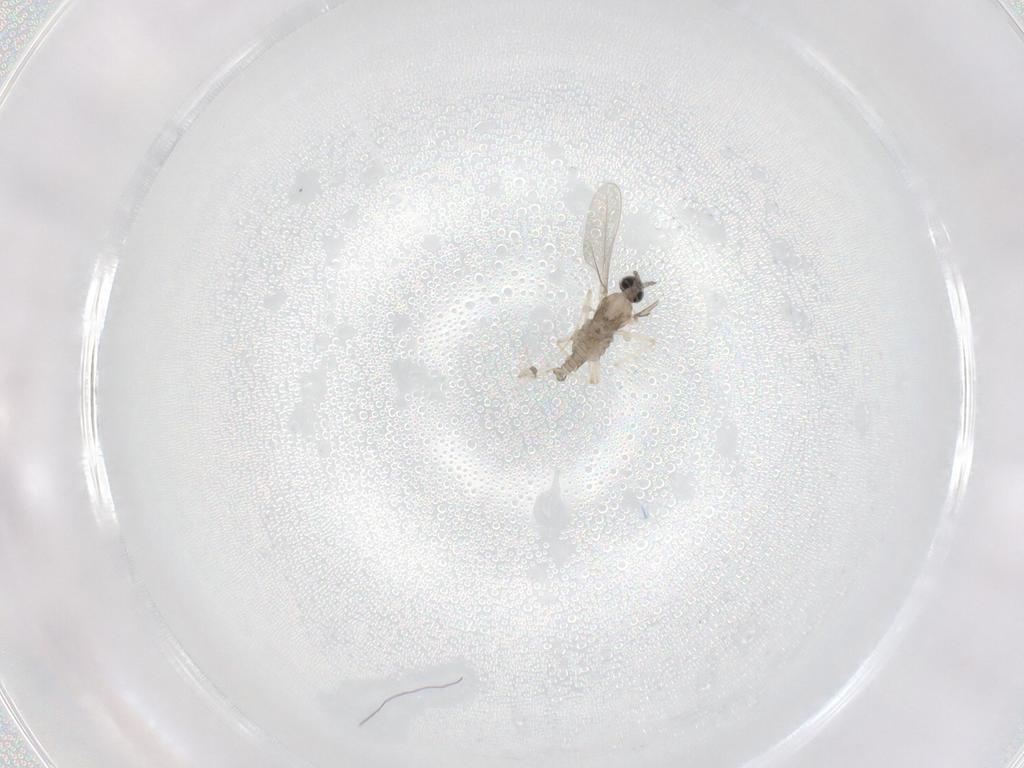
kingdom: Animalia
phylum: Arthropoda
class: Insecta
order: Diptera
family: Cecidomyiidae
